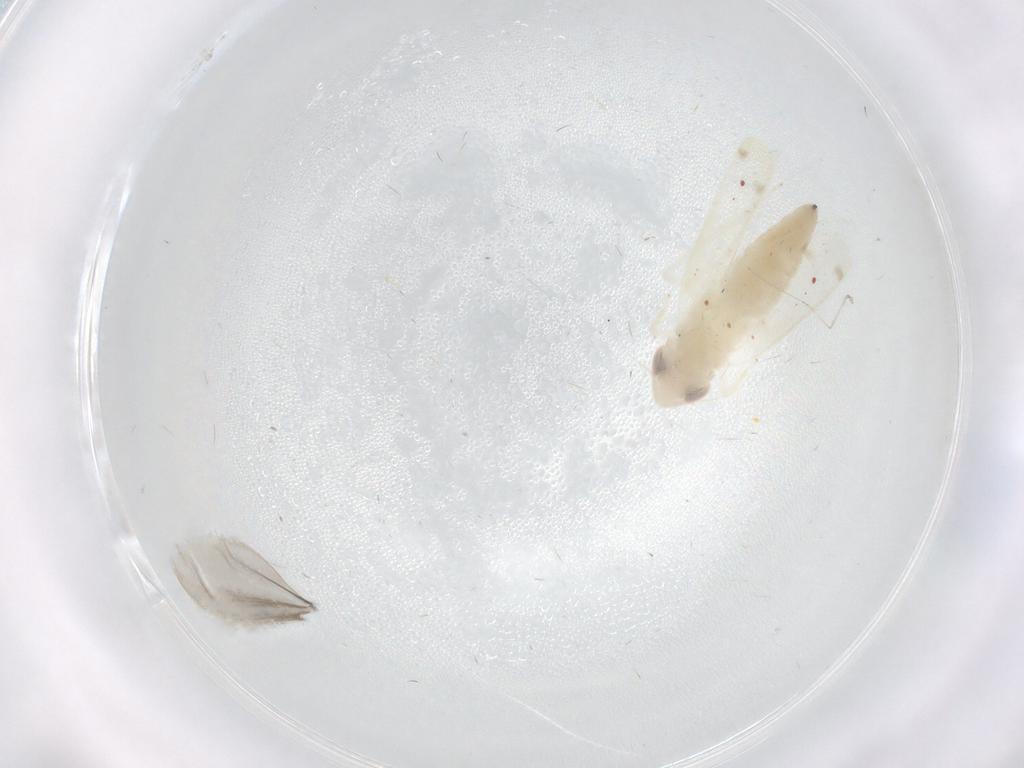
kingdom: Animalia
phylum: Arthropoda
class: Insecta
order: Hemiptera
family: Cicadellidae
